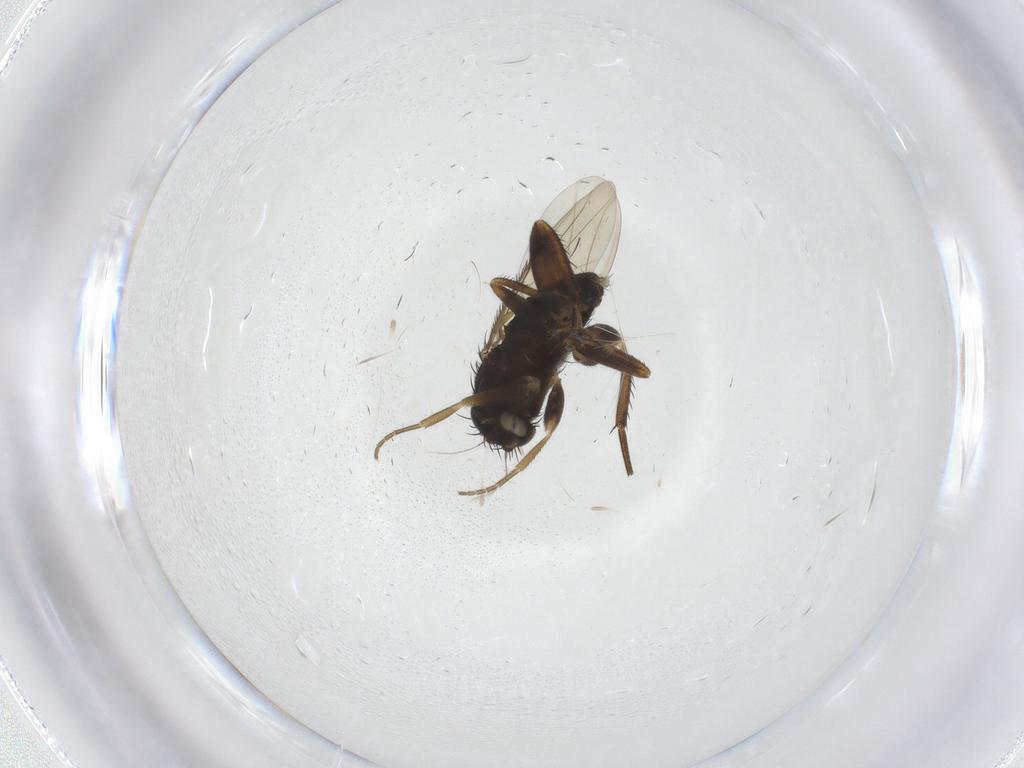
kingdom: Animalia
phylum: Arthropoda
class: Insecta
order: Diptera
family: Phoridae
